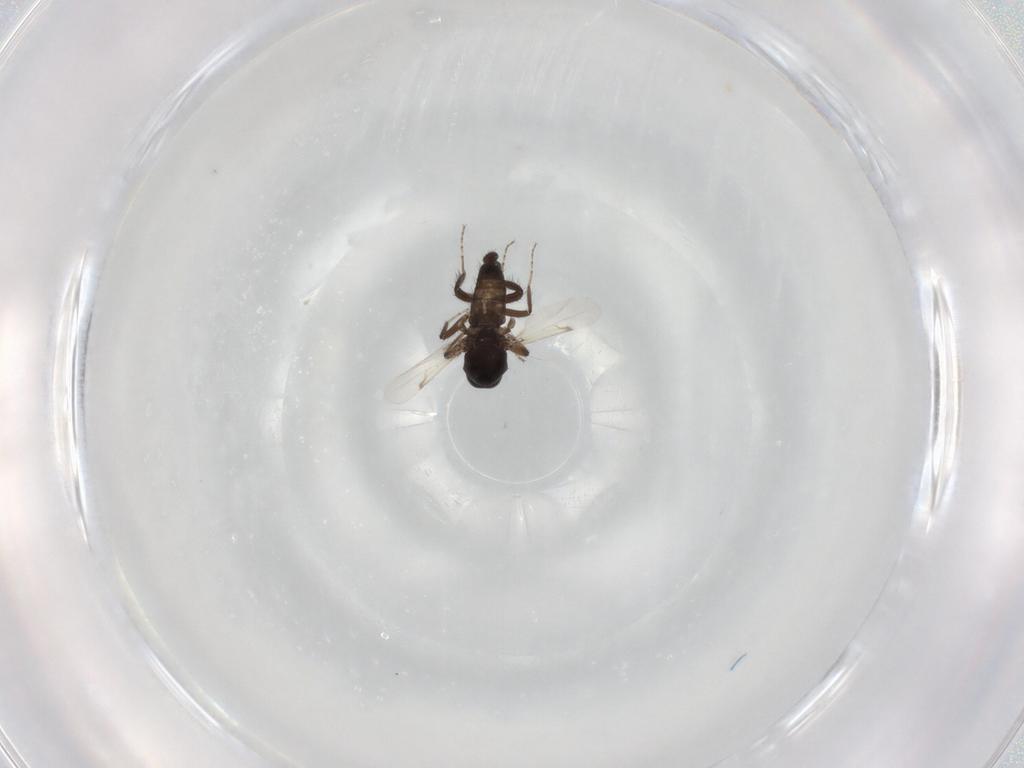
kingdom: Animalia
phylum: Arthropoda
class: Insecta
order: Diptera
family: Ceratopogonidae
